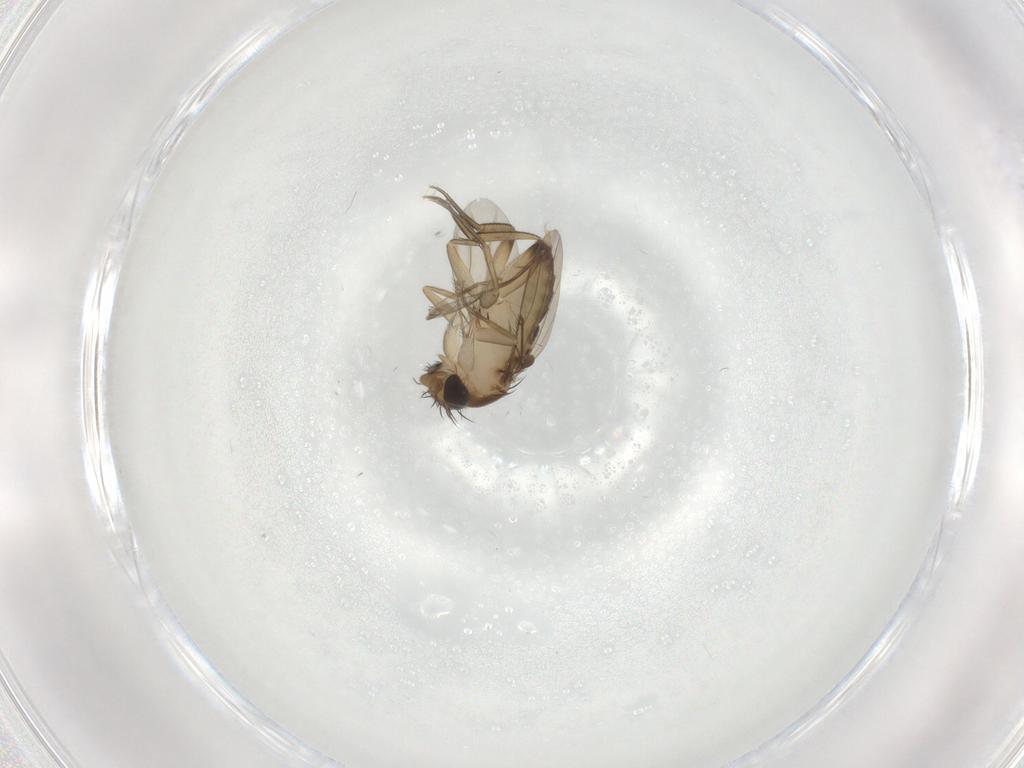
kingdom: Animalia
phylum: Arthropoda
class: Insecta
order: Diptera
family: Phoridae
